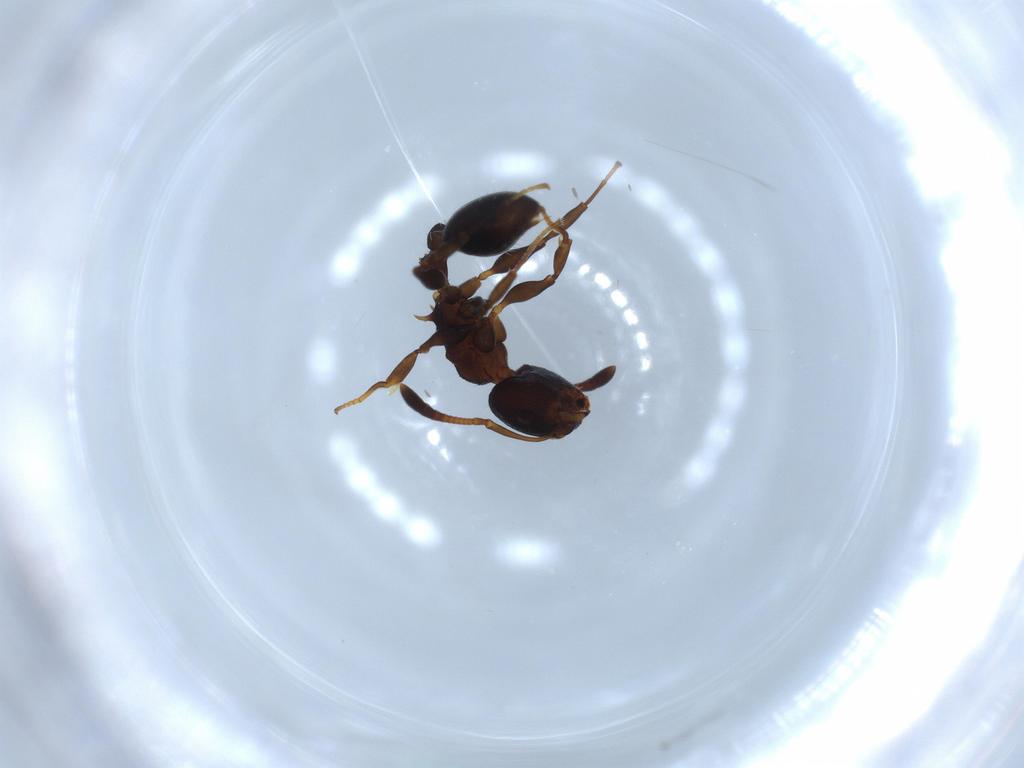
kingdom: Animalia
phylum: Arthropoda
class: Insecta
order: Hymenoptera
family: Formicidae
